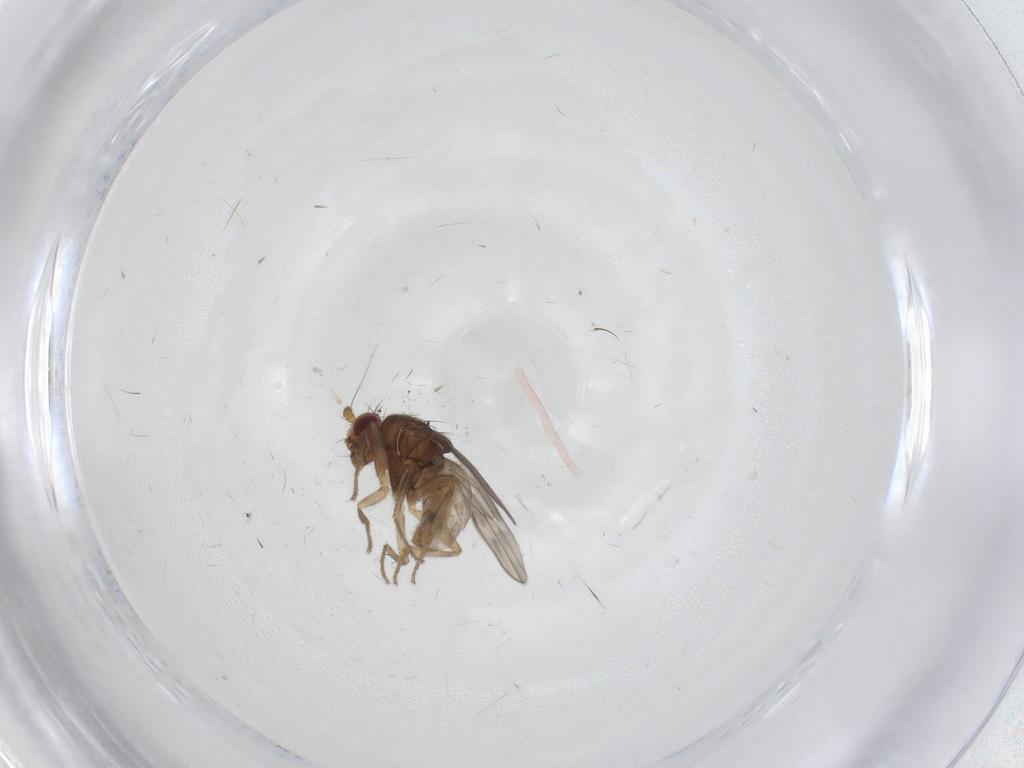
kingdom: Animalia
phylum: Arthropoda
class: Insecta
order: Diptera
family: Sphaeroceridae
